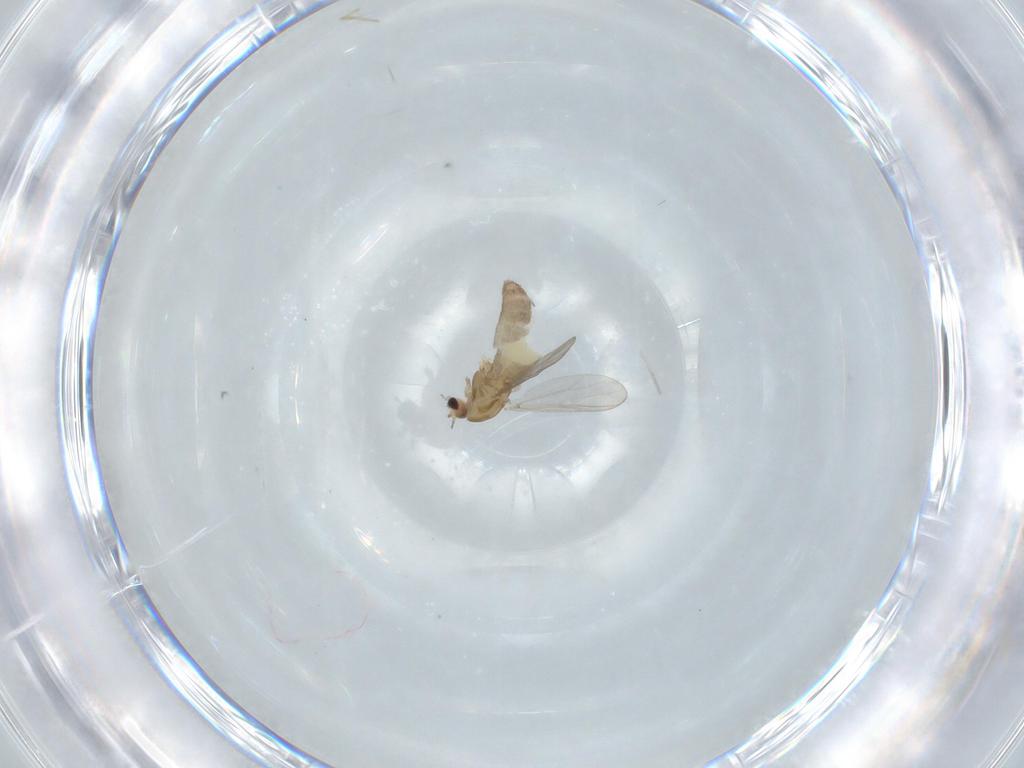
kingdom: Animalia
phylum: Arthropoda
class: Insecta
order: Diptera
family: Chironomidae
